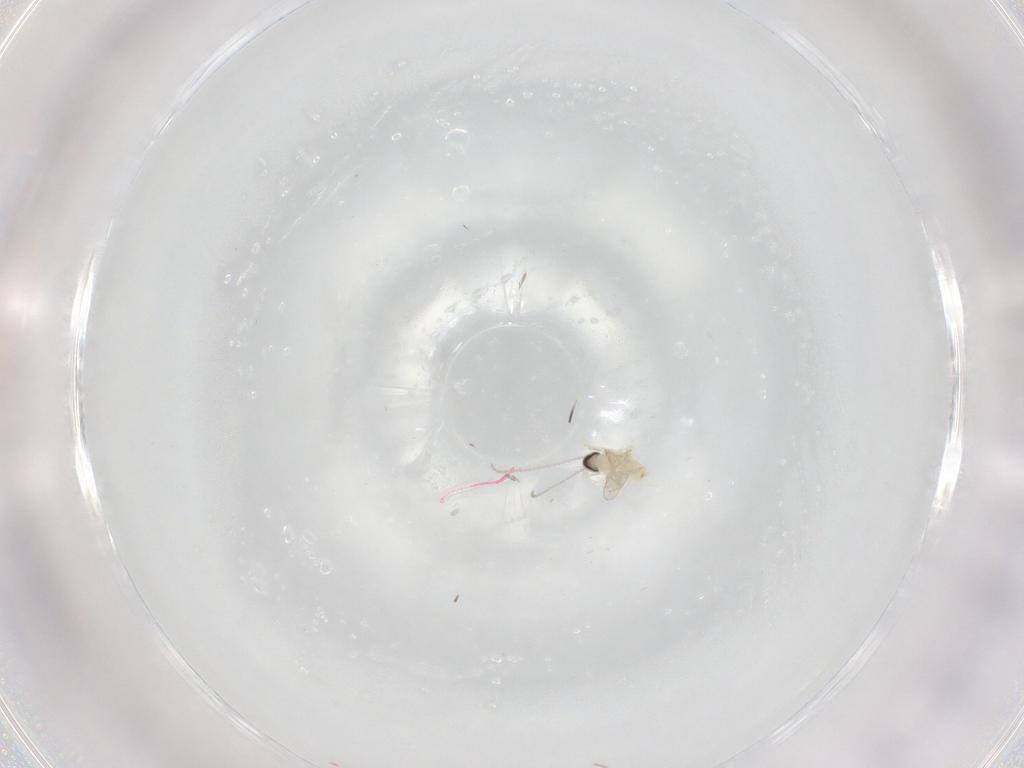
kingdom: Animalia
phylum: Arthropoda
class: Insecta
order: Diptera
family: Cecidomyiidae
